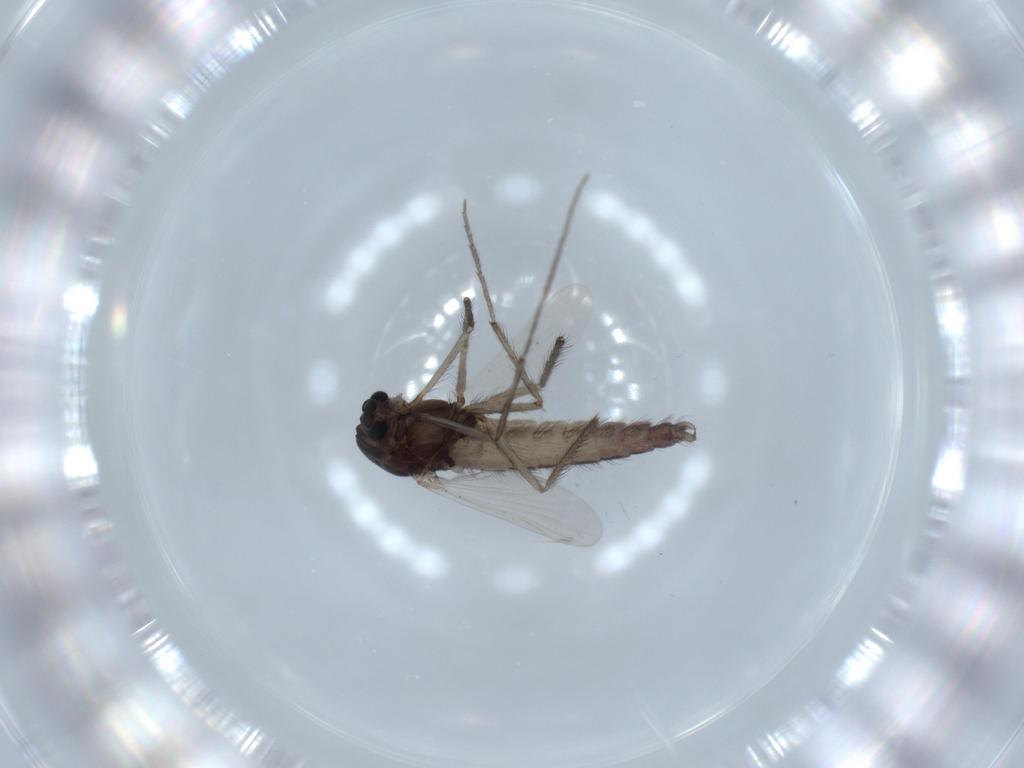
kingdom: Animalia
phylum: Arthropoda
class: Insecta
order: Diptera
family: Chironomidae
